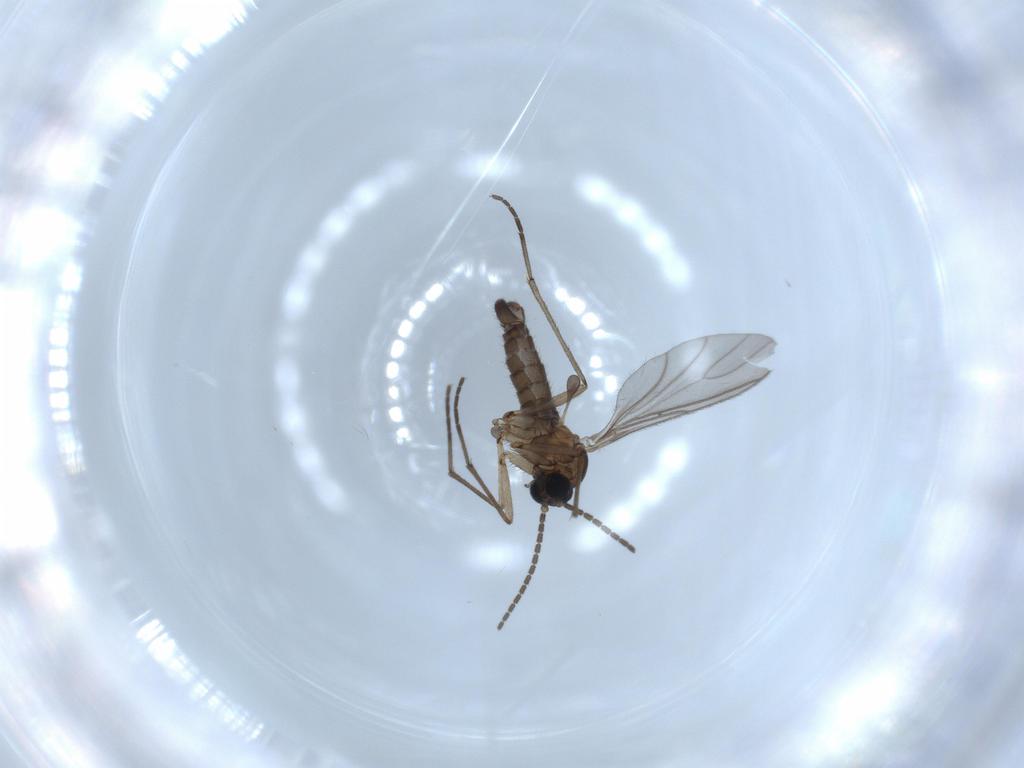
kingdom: Animalia
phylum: Arthropoda
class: Insecta
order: Diptera
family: Sciaridae
